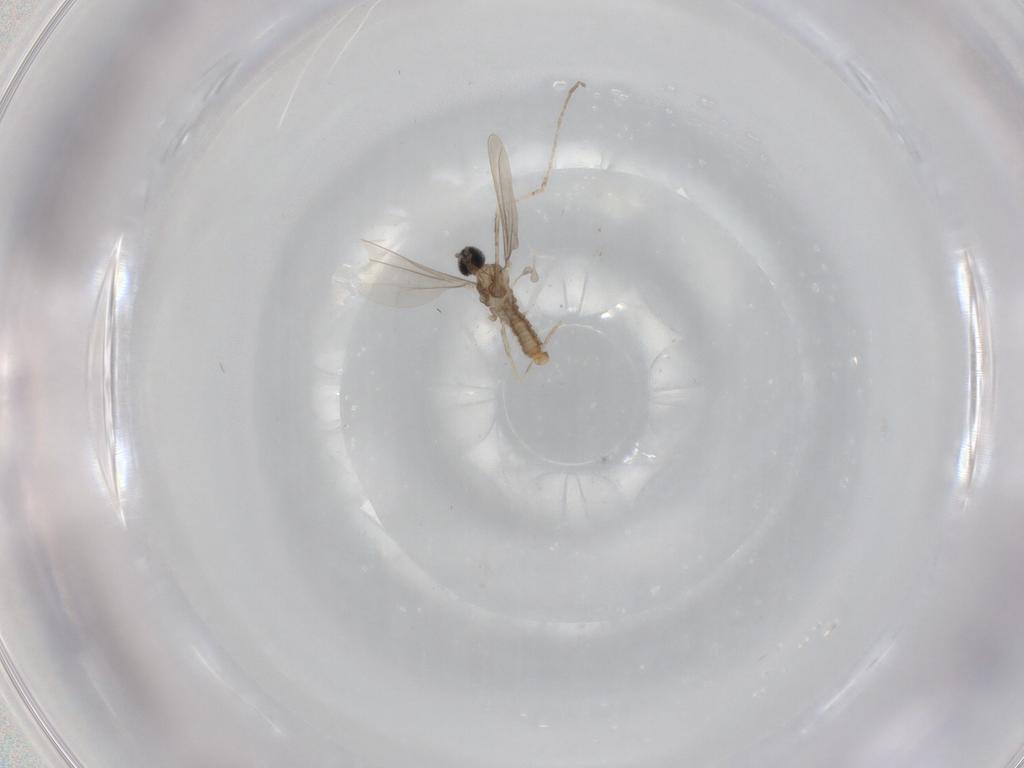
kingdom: Animalia
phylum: Arthropoda
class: Insecta
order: Diptera
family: Cecidomyiidae
